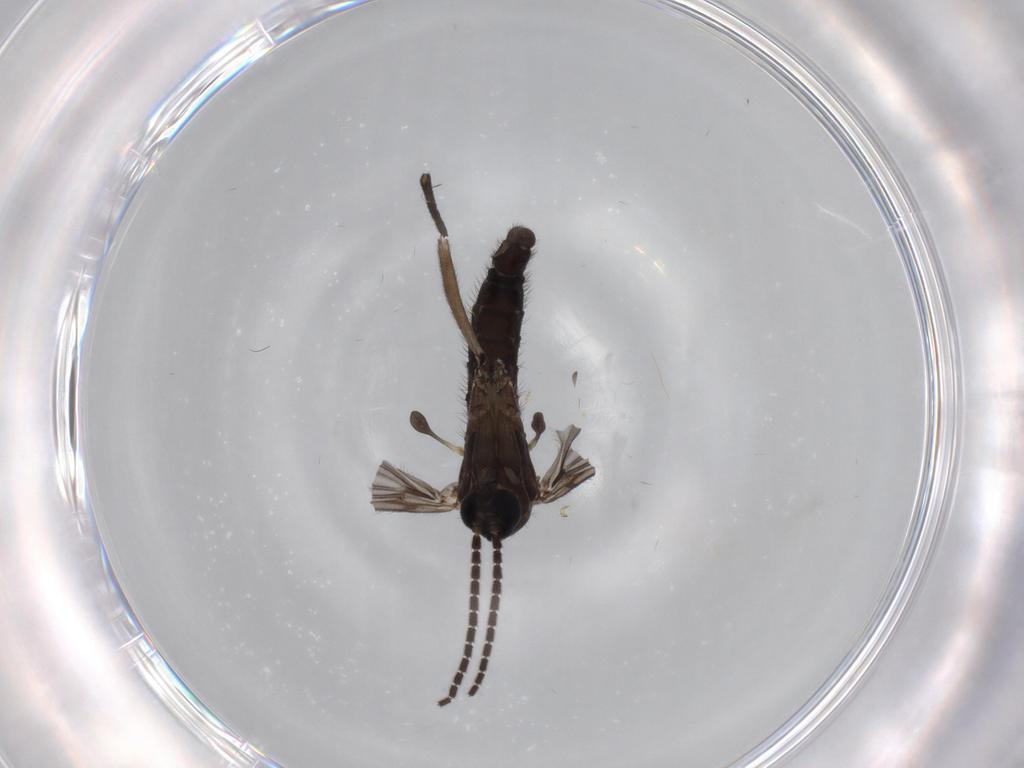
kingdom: Animalia
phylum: Arthropoda
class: Insecta
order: Diptera
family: Sciaridae
